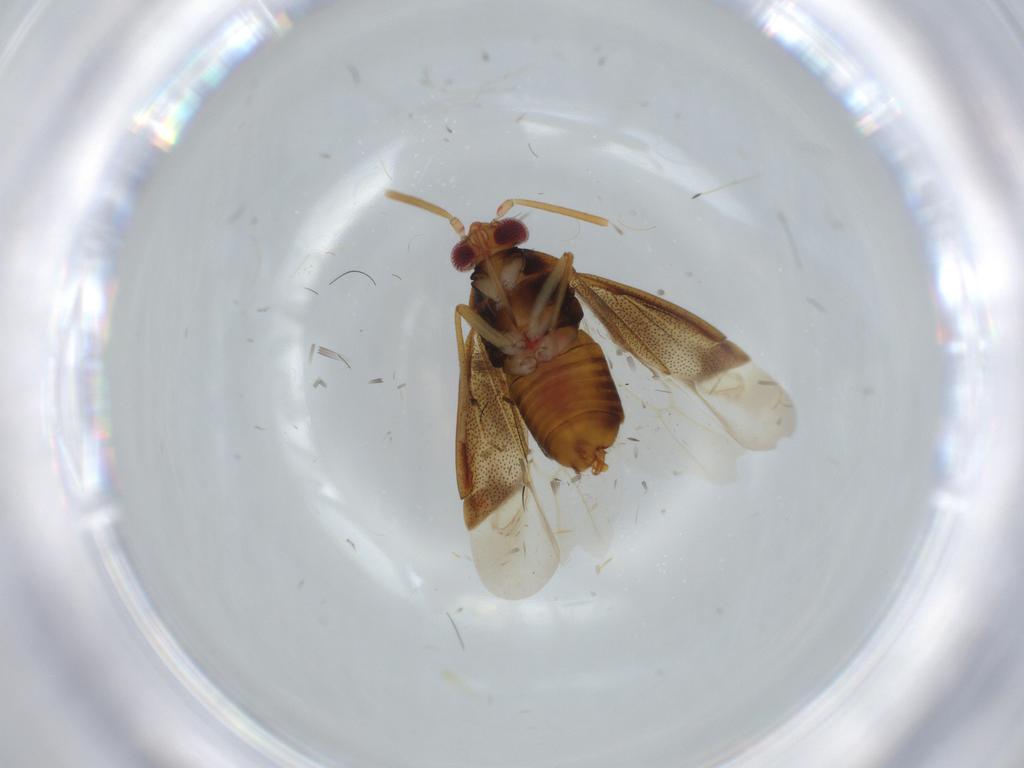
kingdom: Animalia
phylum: Arthropoda
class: Insecta
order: Hemiptera
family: Miridae
